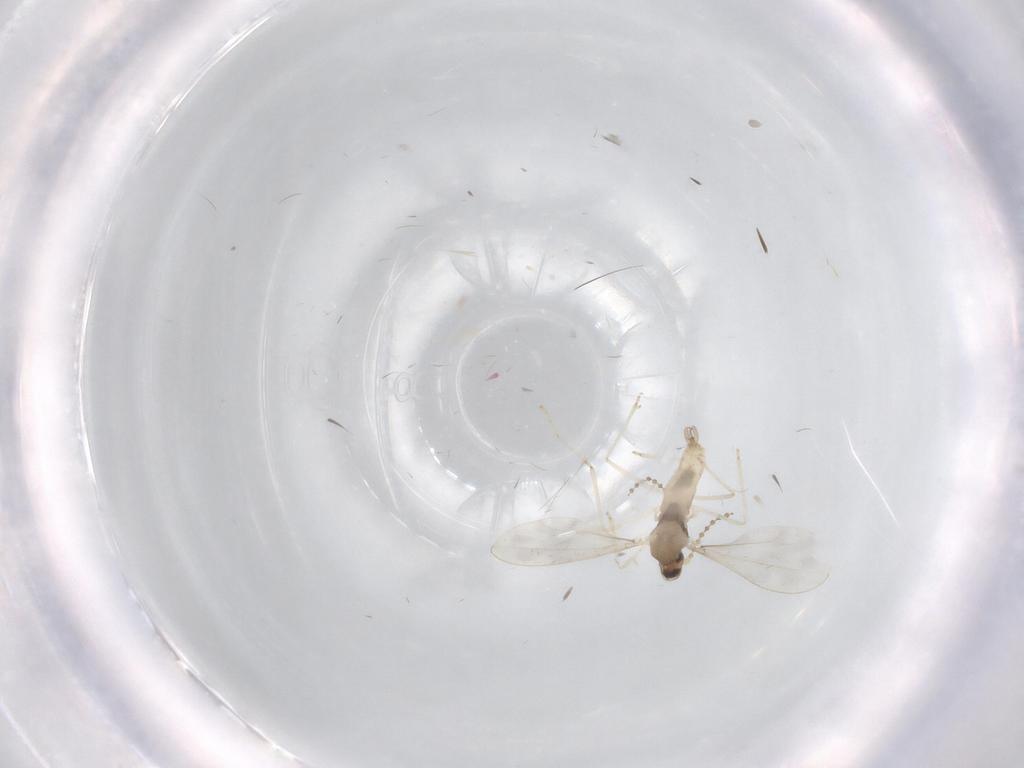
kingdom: Animalia
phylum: Arthropoda
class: Insecta
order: Diptera
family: Cecidomyiidae
